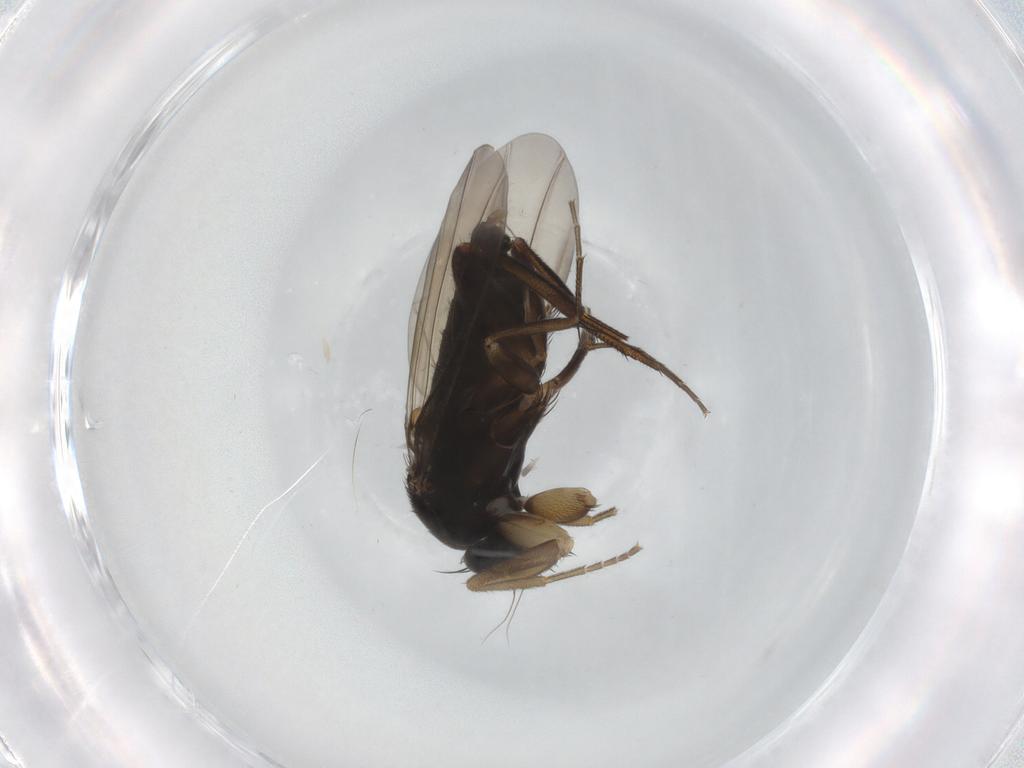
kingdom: Animalia
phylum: Arthropoda
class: Insecta
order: Diptera
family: Phoridae
